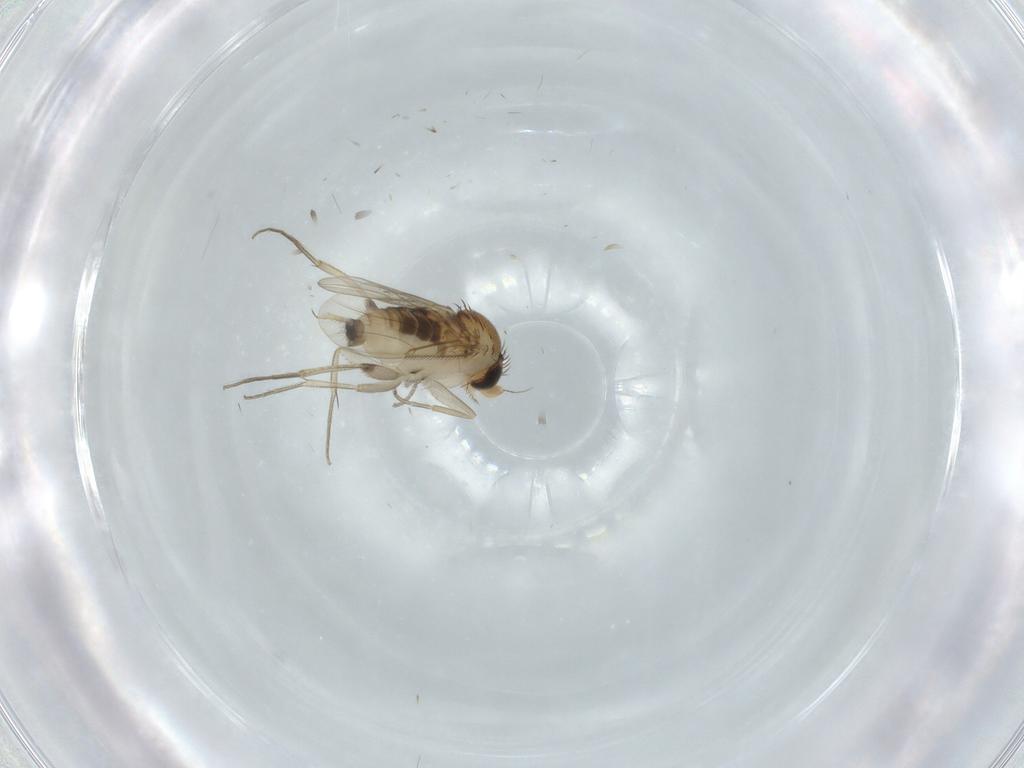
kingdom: Animalia
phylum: Arthropoda
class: Insecta
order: Diptera
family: Phoridae
